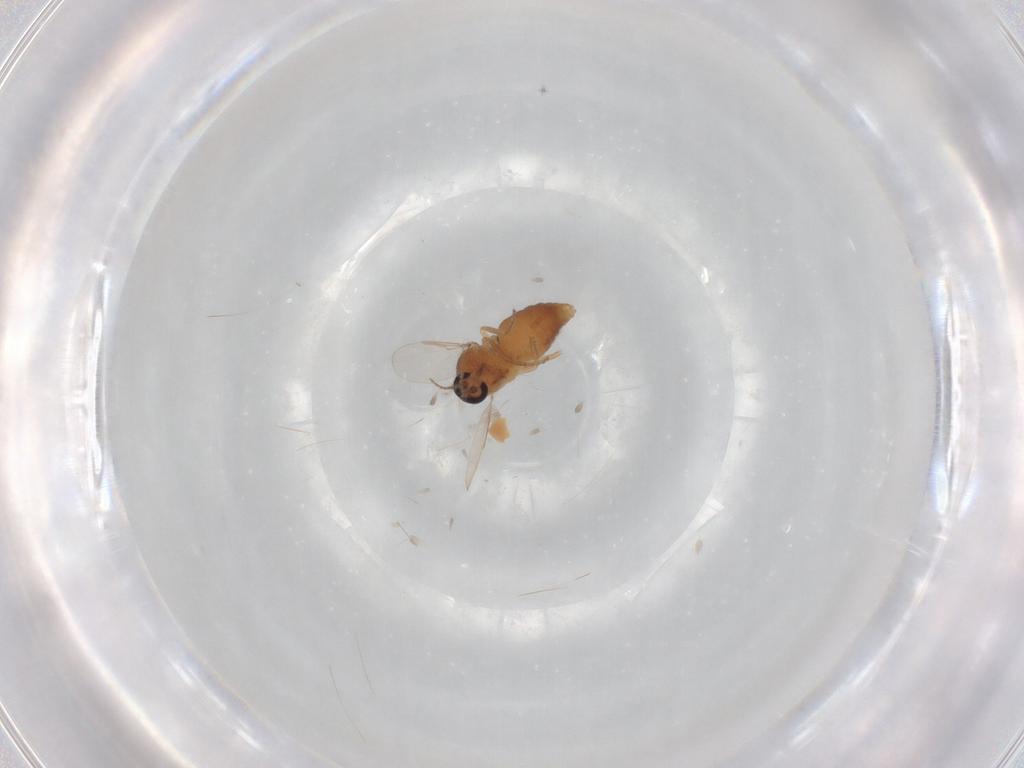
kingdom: Animalia
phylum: Arthropoda
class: Insecta
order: Diptera
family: Ceratopogonidae
